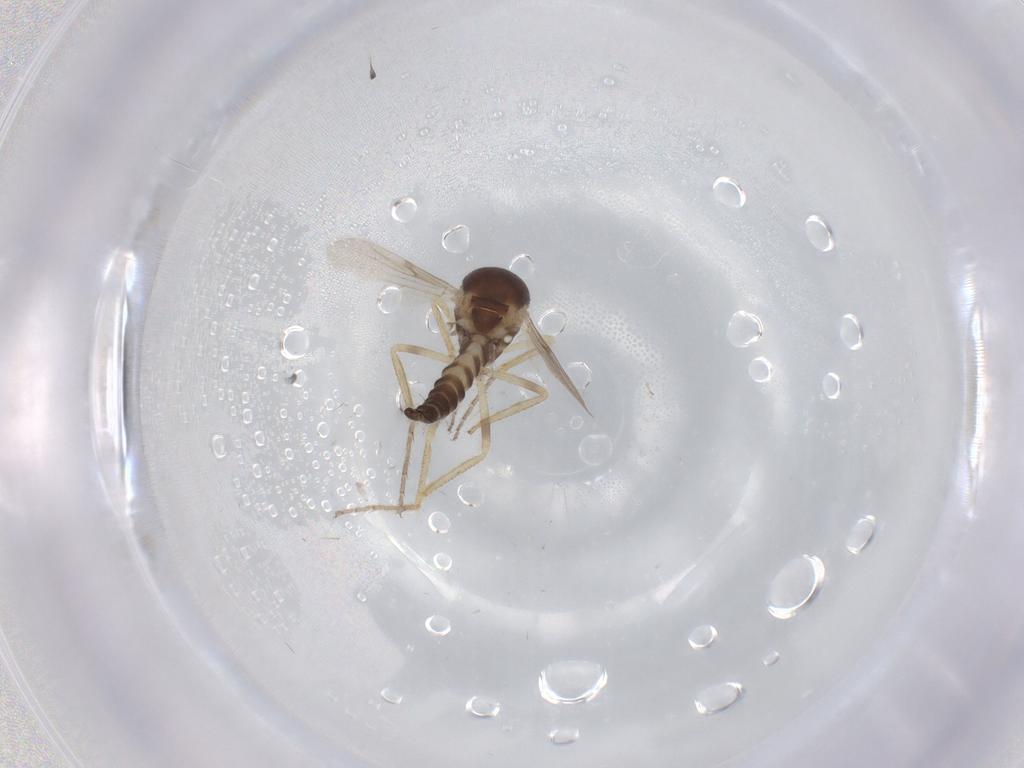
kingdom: Animalia
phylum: Arthropoda
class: Insecta
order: Diptera
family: Ceratopogonidae
